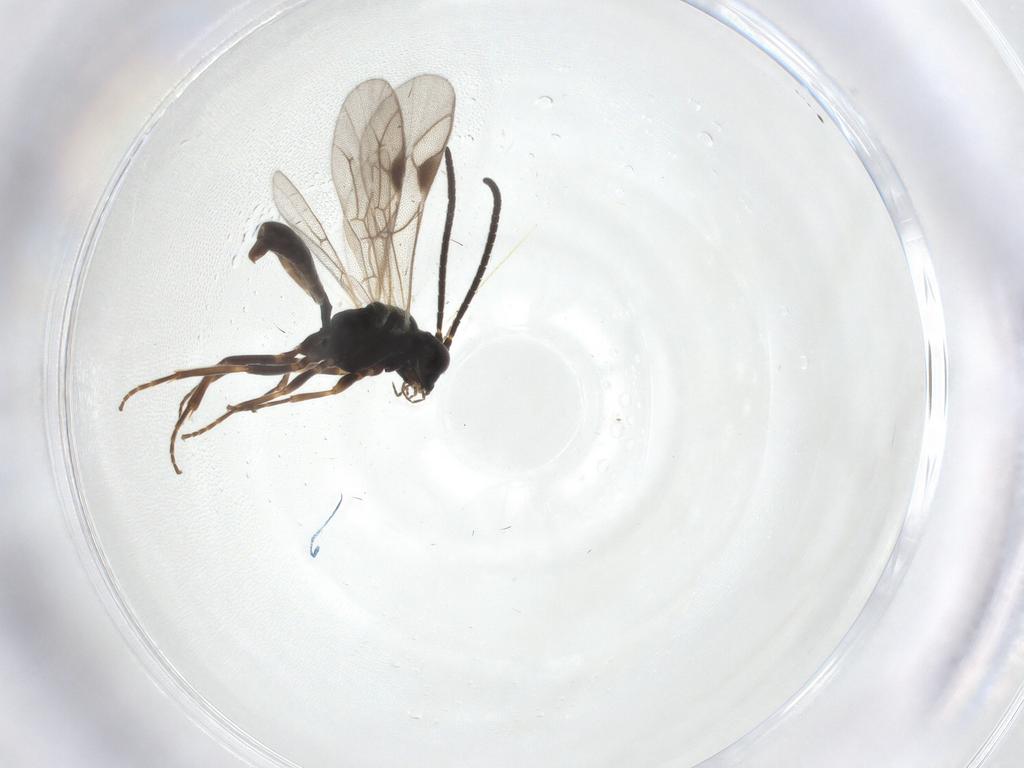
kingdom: Animalia
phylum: Arthropoda
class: Insecta
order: Hymenoptera
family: Ichneumonidae
